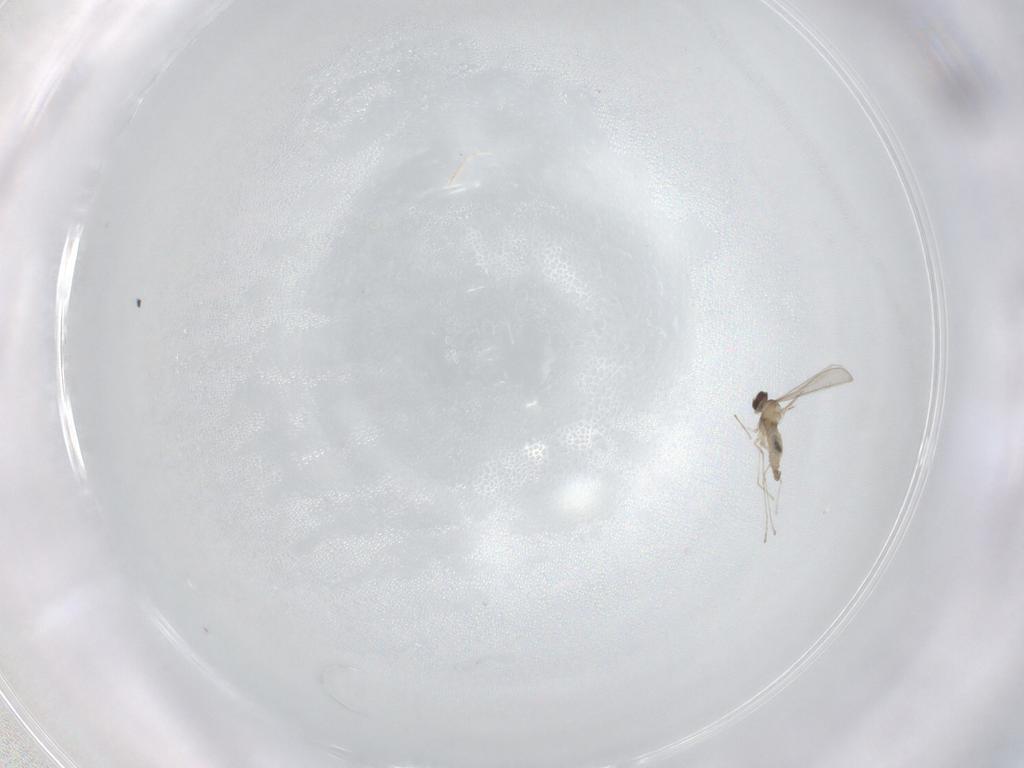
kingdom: Animalia
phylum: Arthropoda
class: Insecta
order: Diptera
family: Cecidomyiidae
